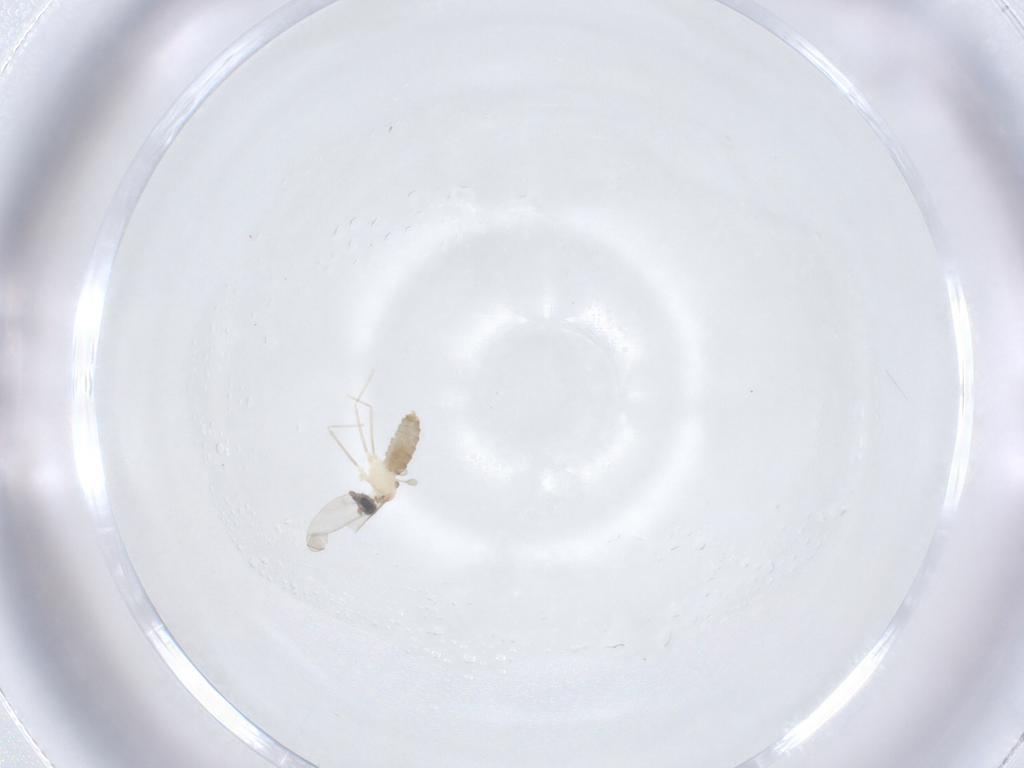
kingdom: Animalia
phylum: Arthropoda
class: Insecta
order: Diptera
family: Cecidomyiidae
